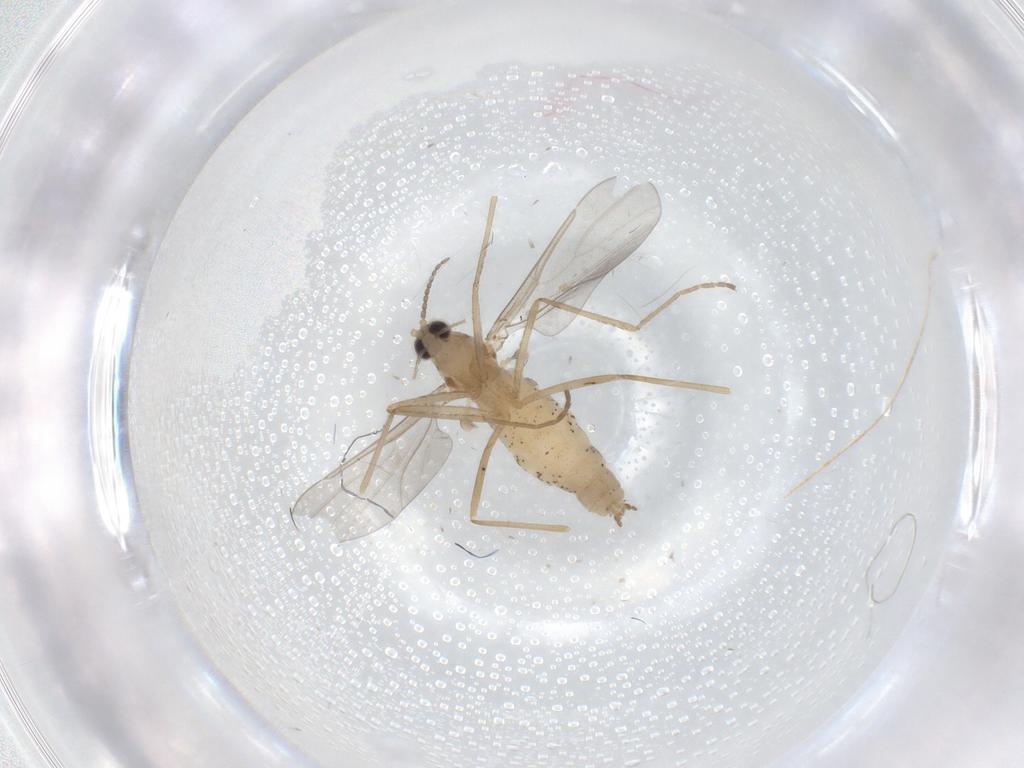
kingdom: Animalia
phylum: Arthropoda
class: Insecta
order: Diptera
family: Cecidomyiidae
